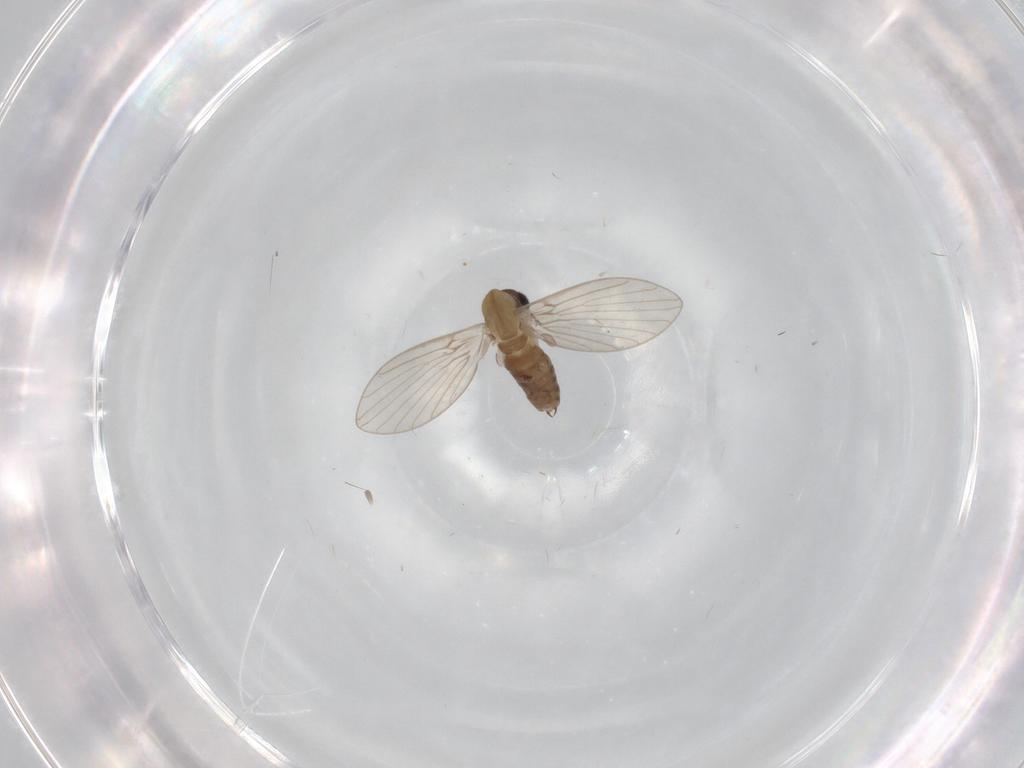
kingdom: Animalia
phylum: Arthropoda
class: Insecta
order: Diptera
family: Psychodidae
